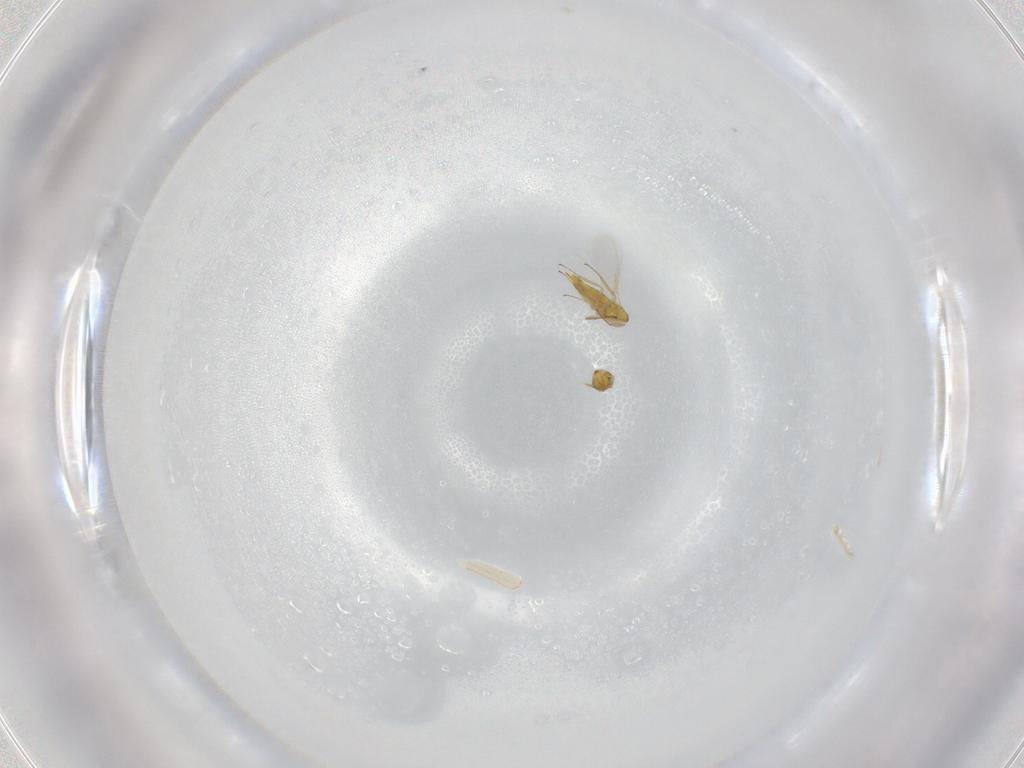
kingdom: Animalia
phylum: Arthropoda
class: Insecta
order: Hymenoptera
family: Aphelinidae
